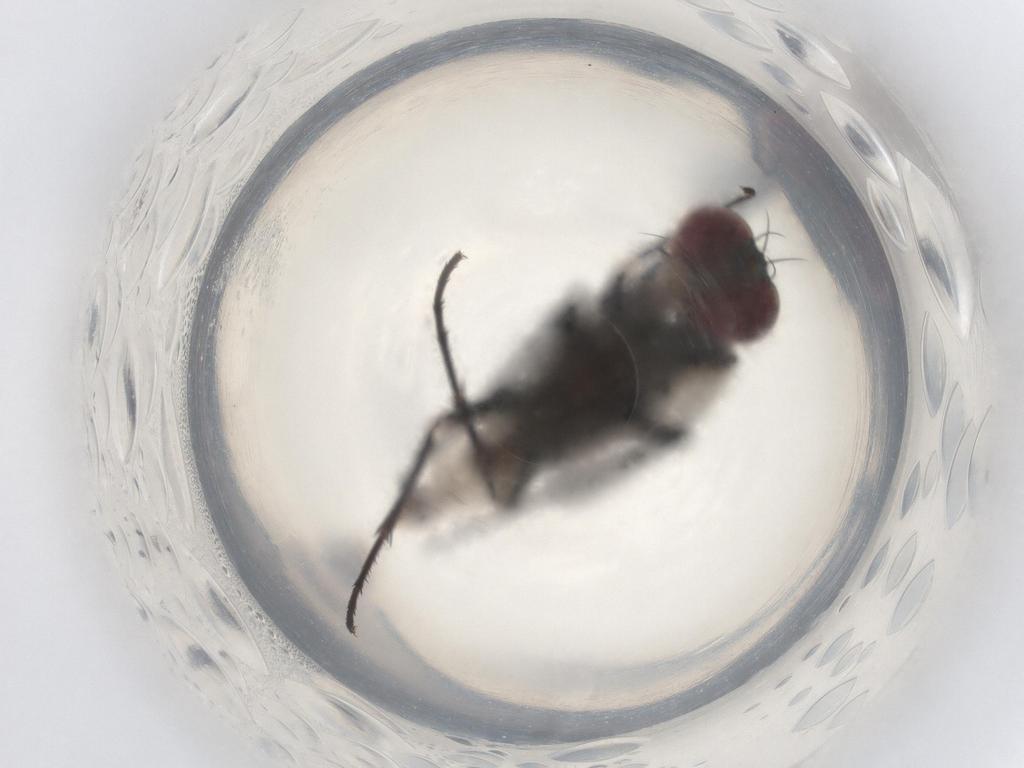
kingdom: Animalia
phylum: Arthropoda
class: Insecta
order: Diptera
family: Dolichopodidae
